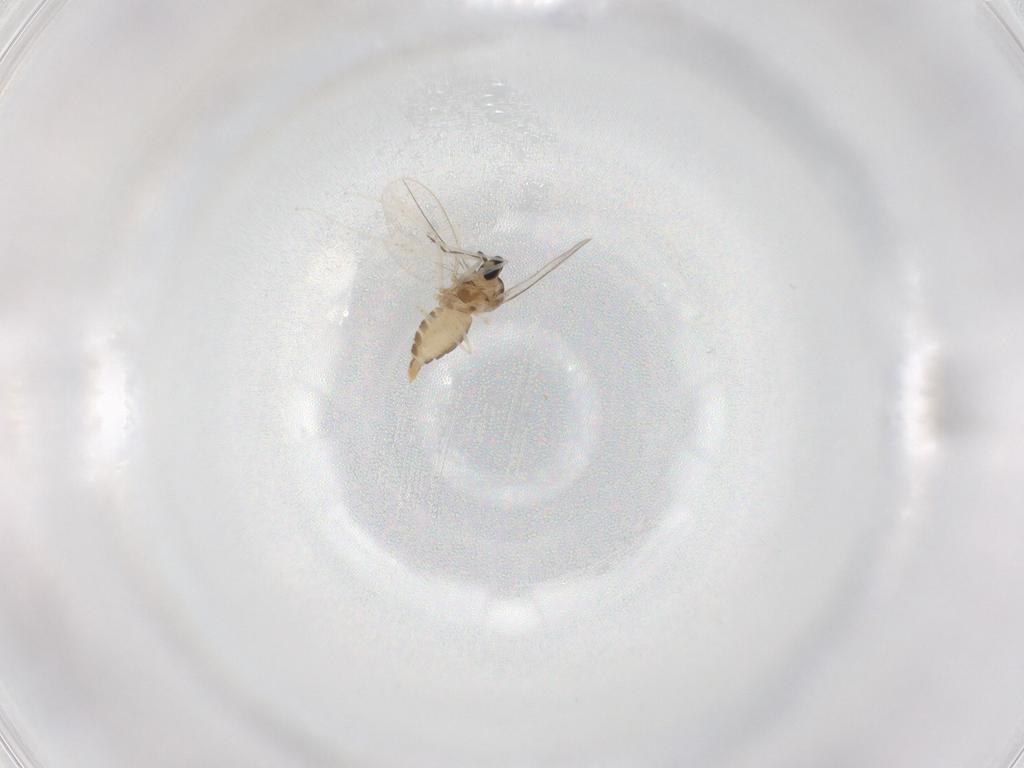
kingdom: Animalia
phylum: Arthropoda
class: Insecta
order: Diptera
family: Cecidomyiidae
